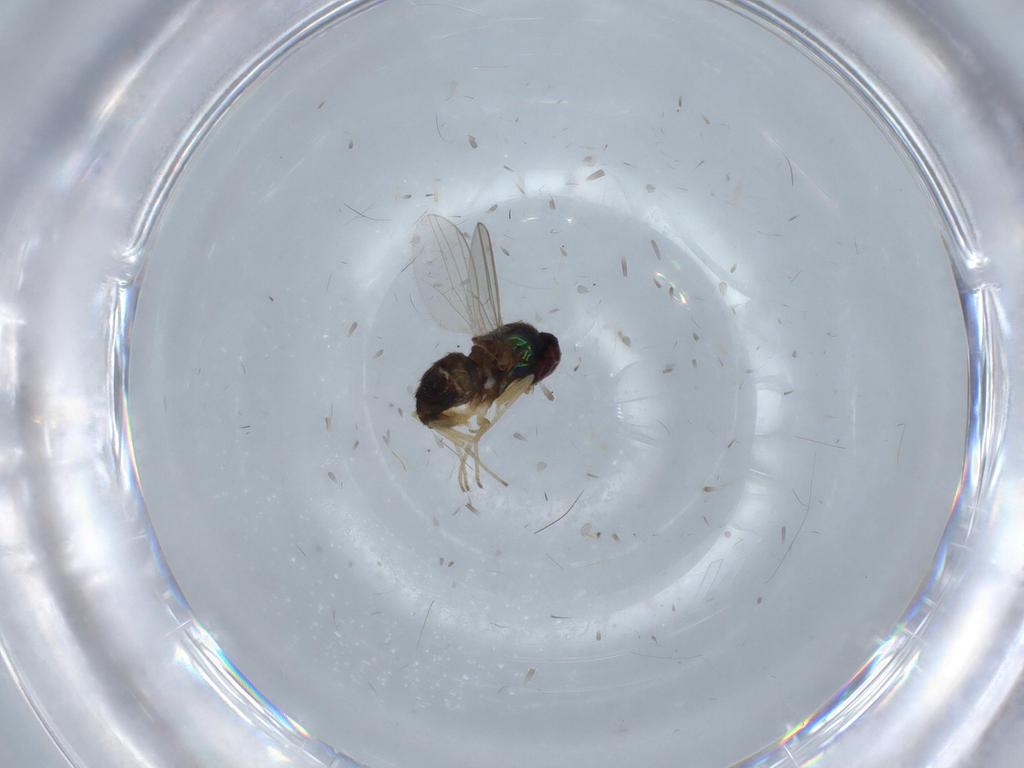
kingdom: Animalia
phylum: Arthropoda
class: Insecta
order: Diptera
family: Dolichopodidae
